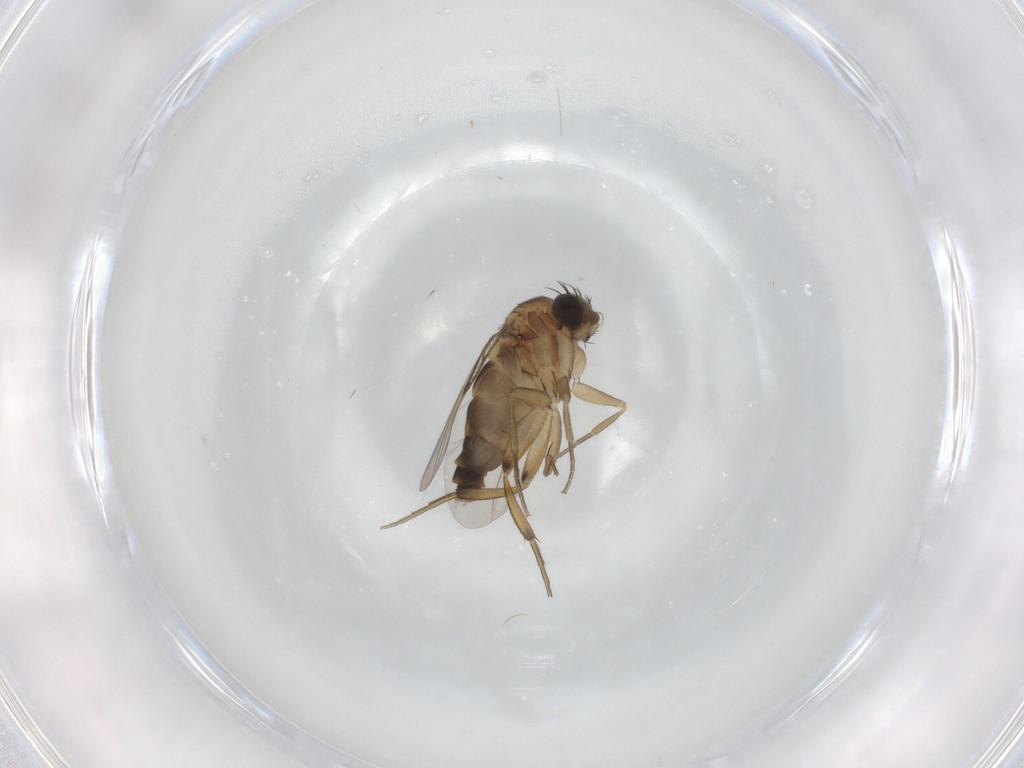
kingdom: Animalia
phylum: Arthropoda
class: Insecta
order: Diptera
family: Phoridae
